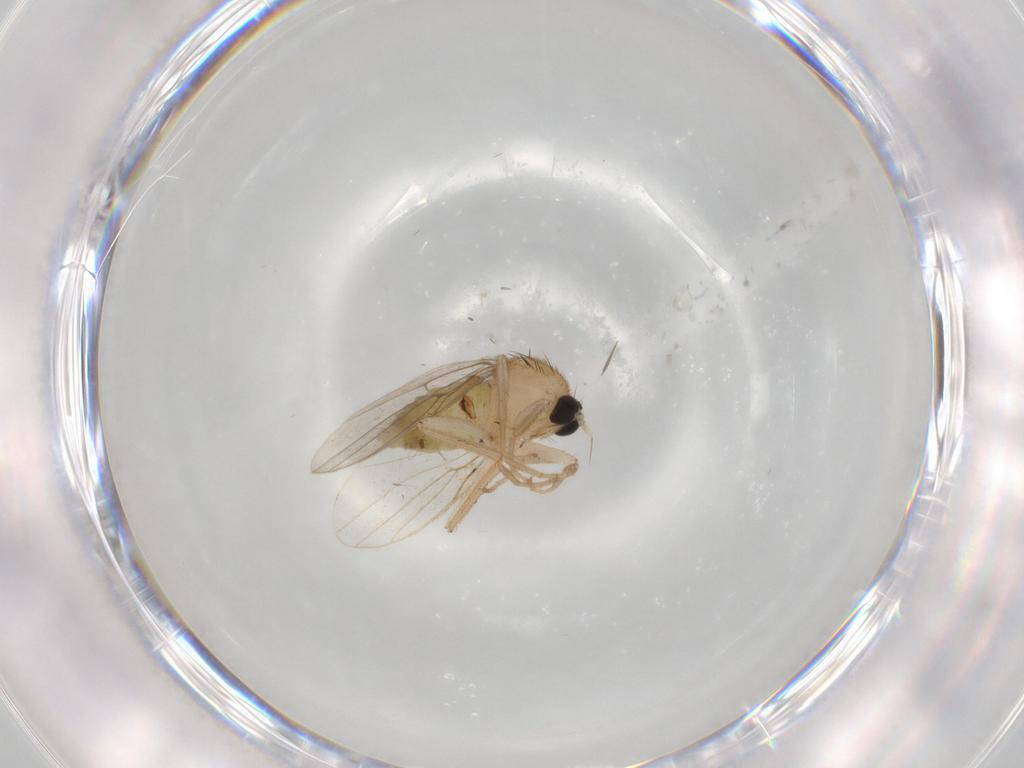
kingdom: Animalia
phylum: Arthropoda
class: Insecta
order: Diptera
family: Hybotidae
